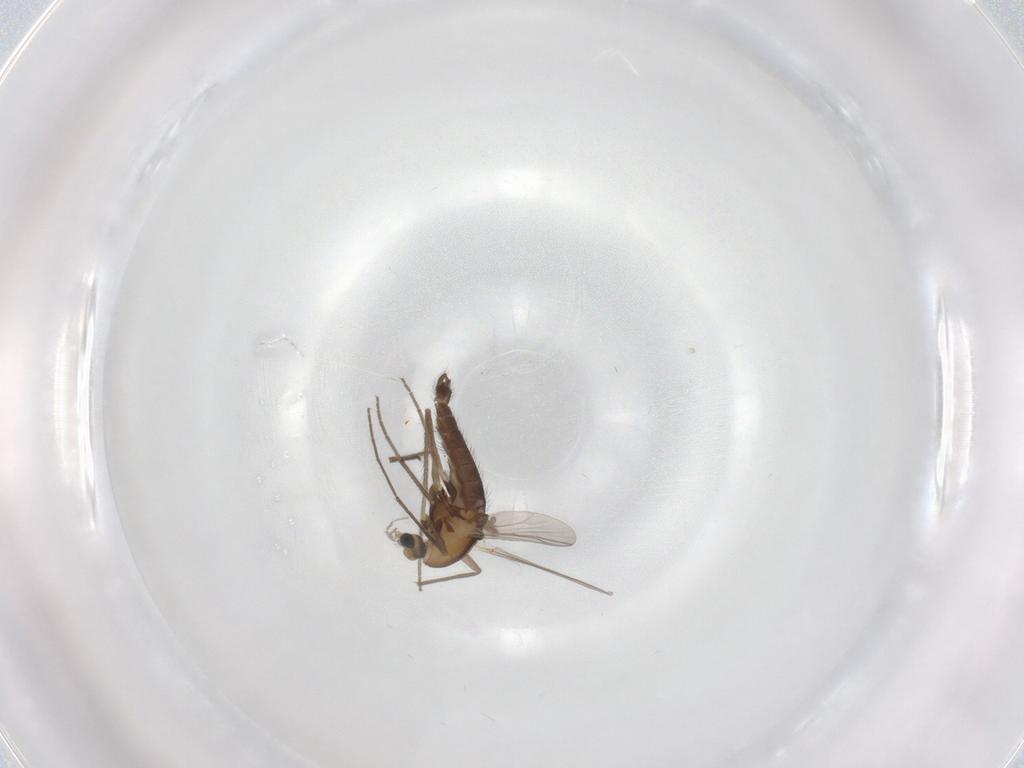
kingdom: Animalia
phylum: Arthropoda
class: Insecta
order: Diptera
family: Chironomidae
